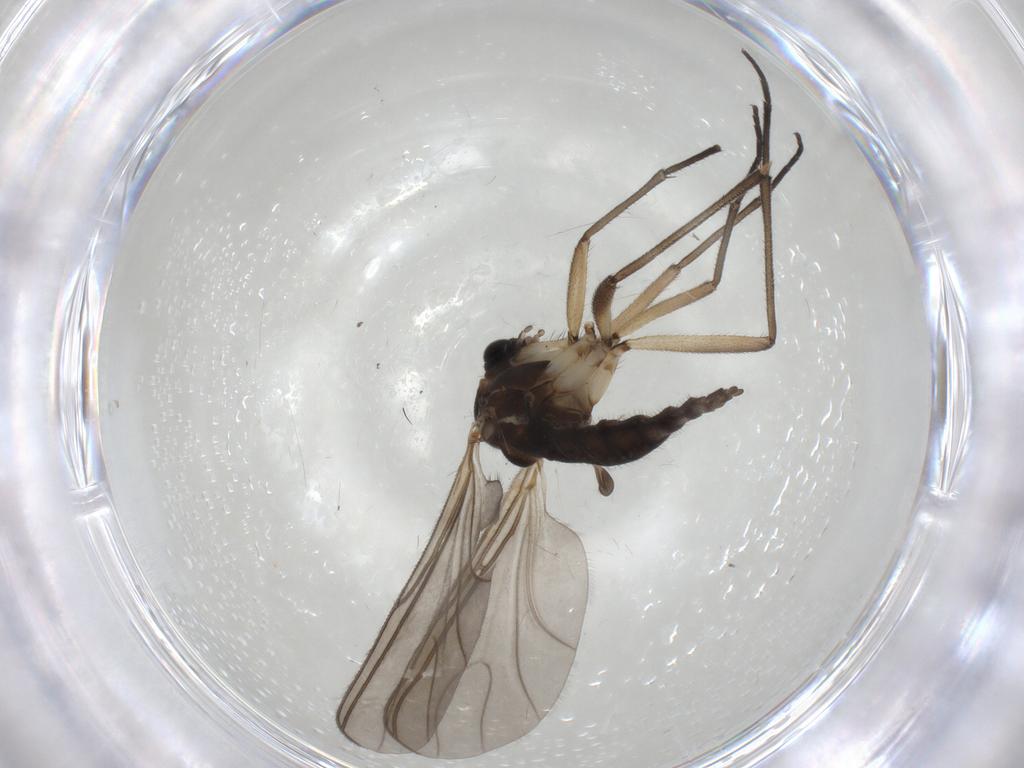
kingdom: Animalia
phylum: Arthropoda
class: Insecta
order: Diptera
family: Sciaridae
